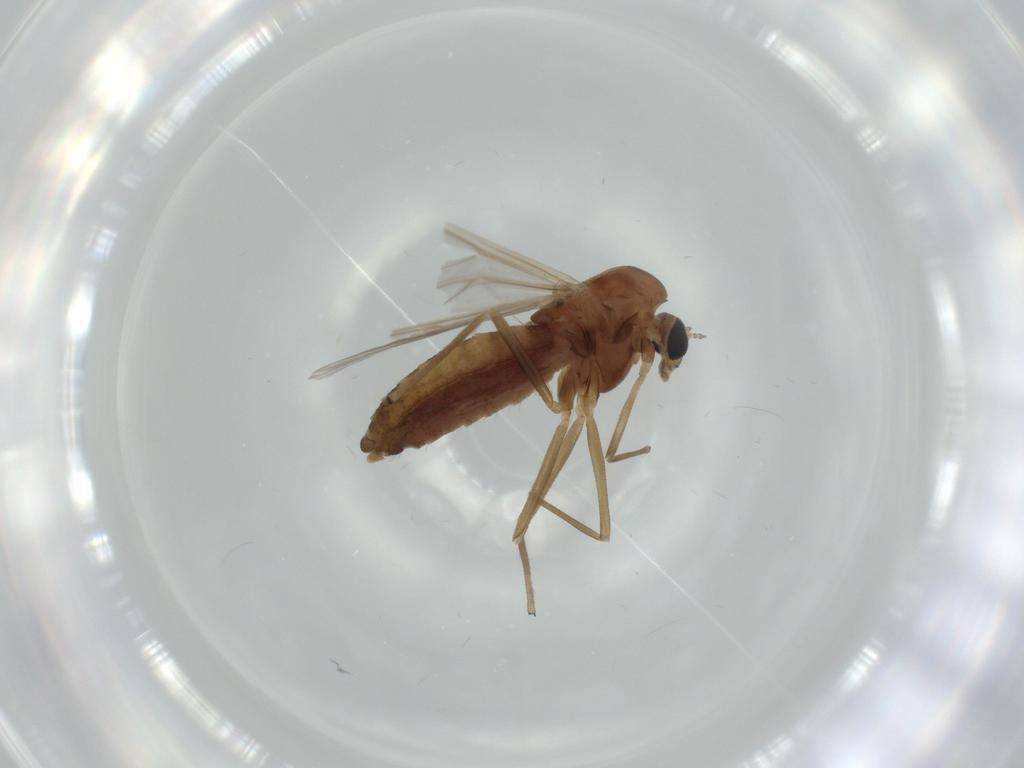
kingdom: Animalia
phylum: Arthropoda
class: Insecta
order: Diptera
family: Chironomidae
